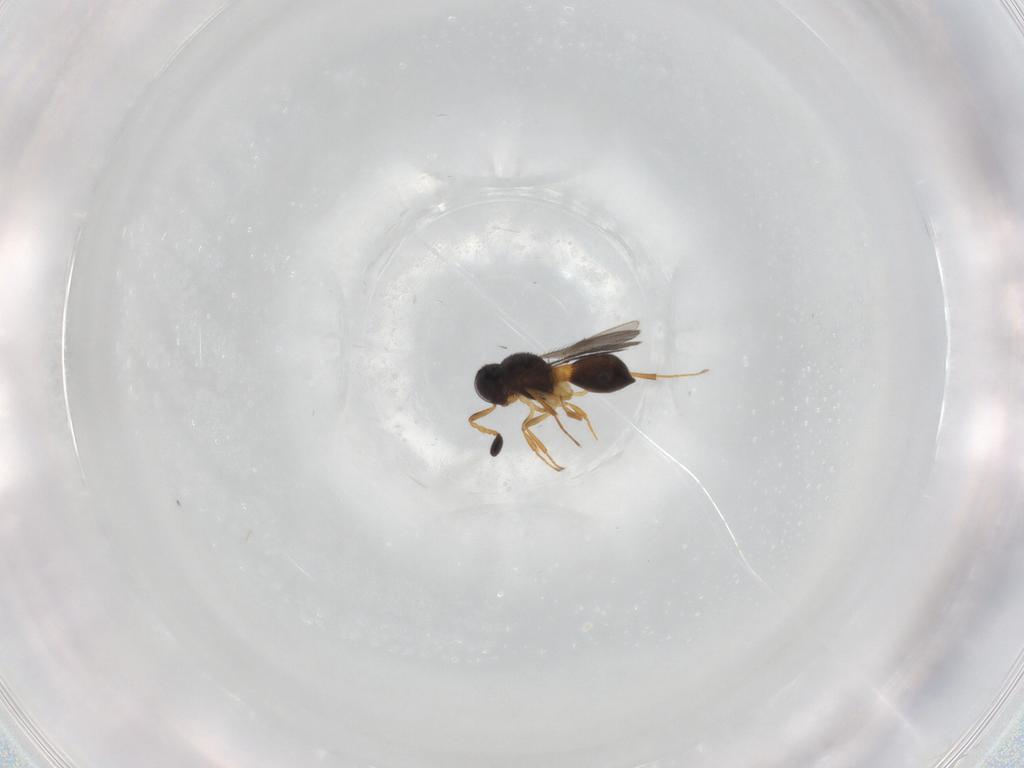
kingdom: Animalia
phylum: Arthropoda
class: Insecta
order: Hymenoptera
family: Scelionidae
